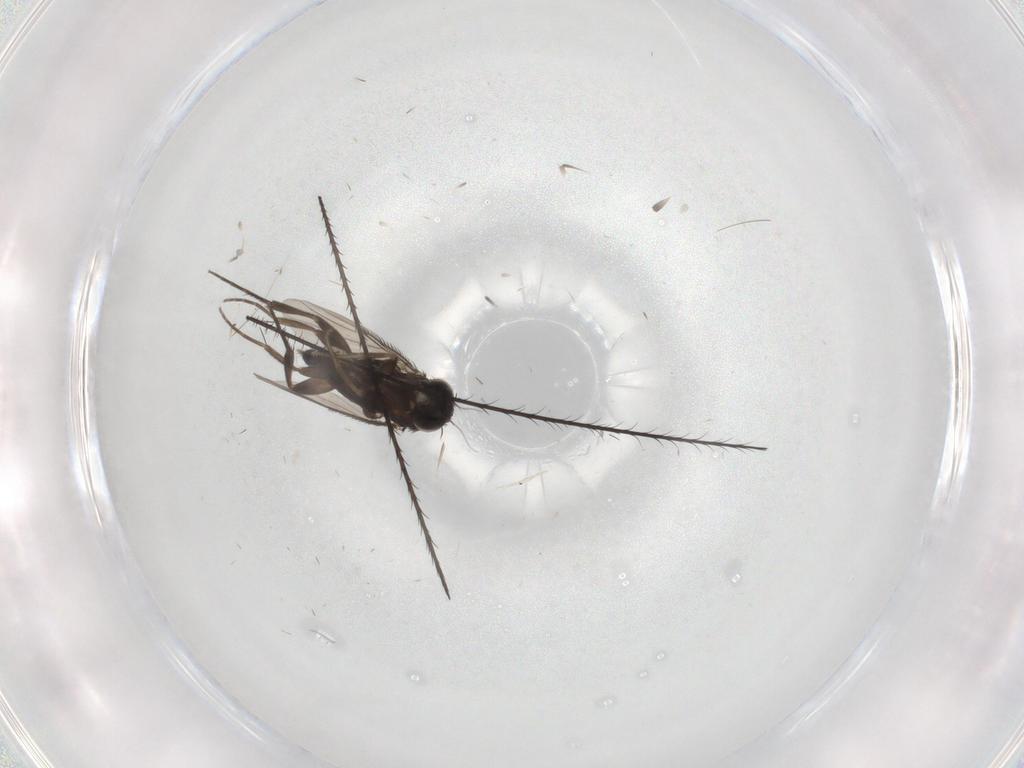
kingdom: Animalia
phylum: Arthropoda
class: Insecta
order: Diptera
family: Phoridae
